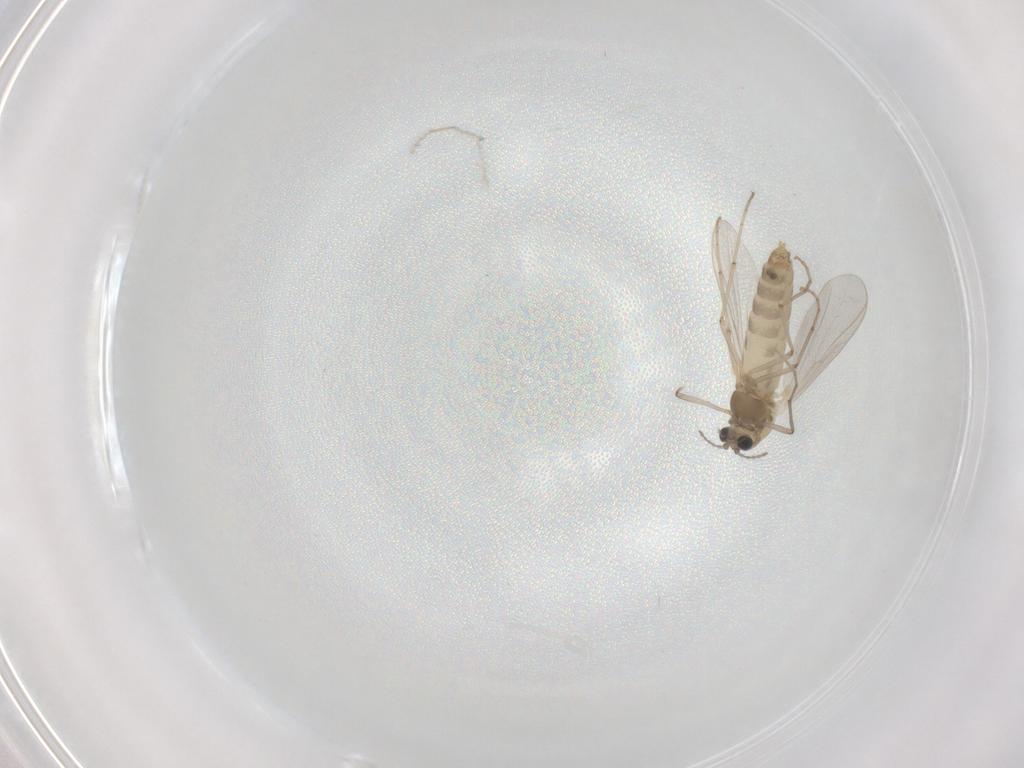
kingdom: Animalia
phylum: Arthropoda
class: Insecta
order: Diptera
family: Chironomidae
